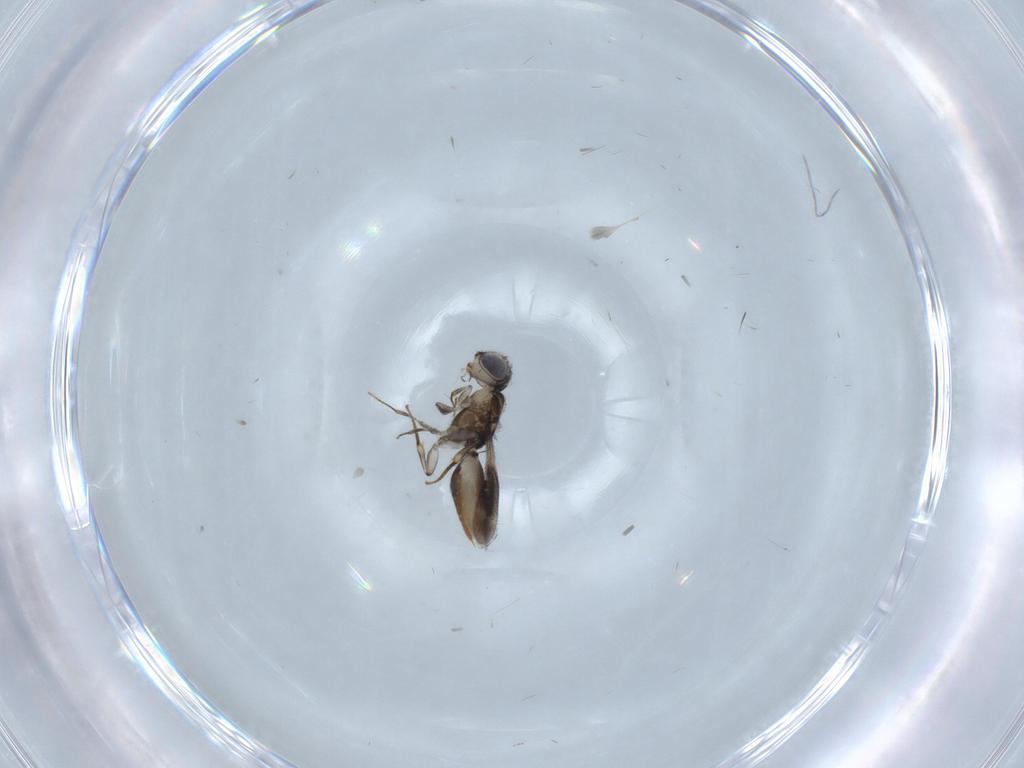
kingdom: Animalia
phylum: Arthropoda
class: Insecta
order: Hymenoptera
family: Megaspilidae
